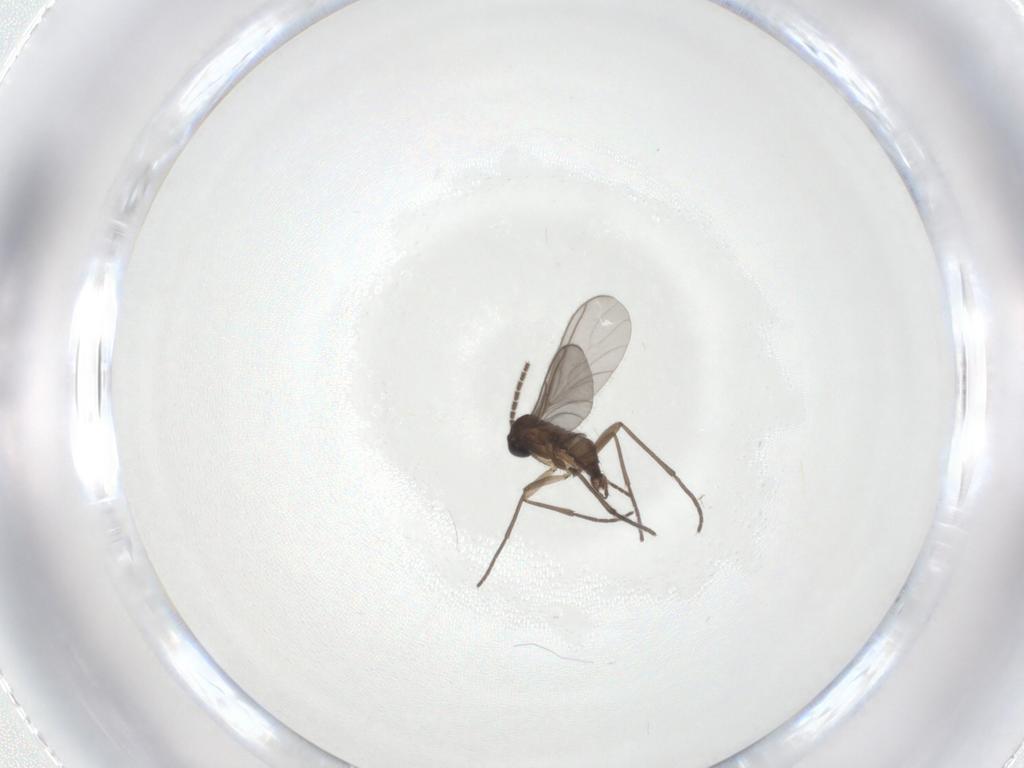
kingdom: Animalia
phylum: Arthropoda
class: Insecta
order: Diptera
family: Sciaridae
